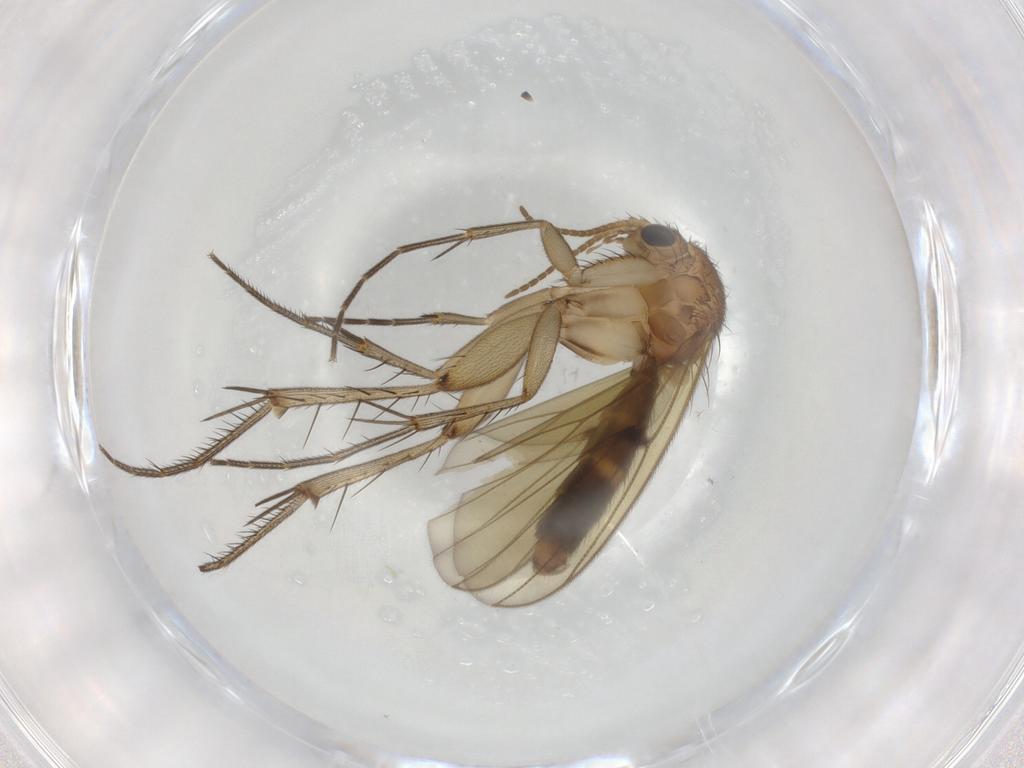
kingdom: Animalia
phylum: Arthropoda
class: Insecta
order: Diptera
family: Mycetophilidae
